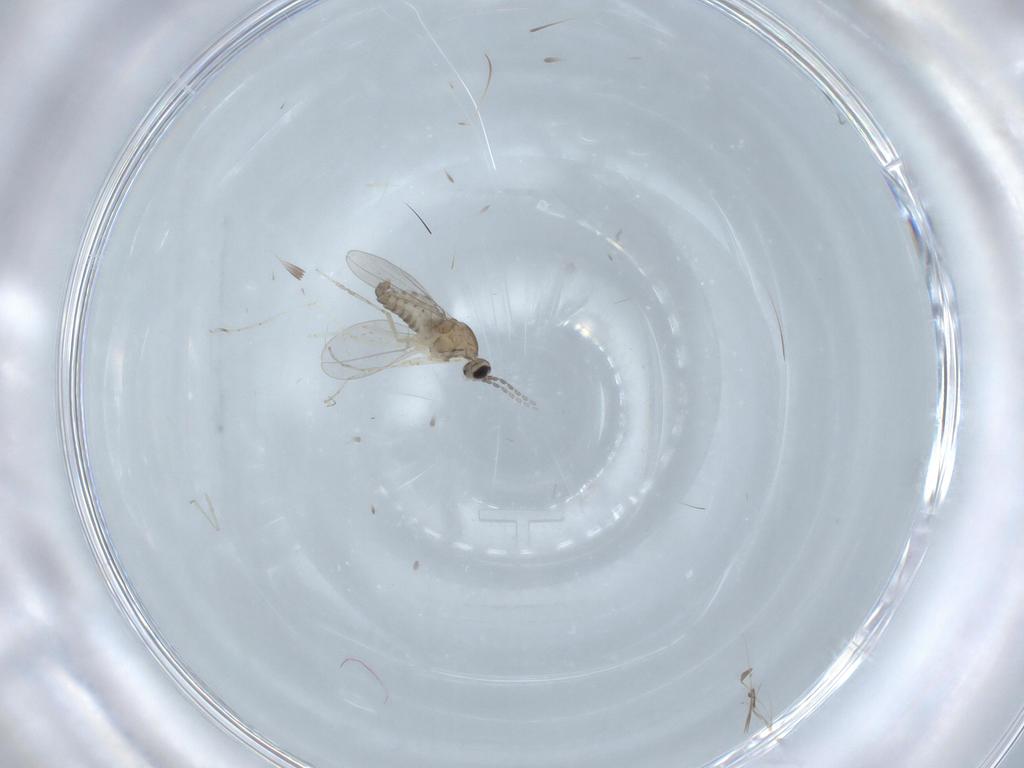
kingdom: Animalia
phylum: Arthropoda
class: Insecta
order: Diptera
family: Cecidomyiidae
